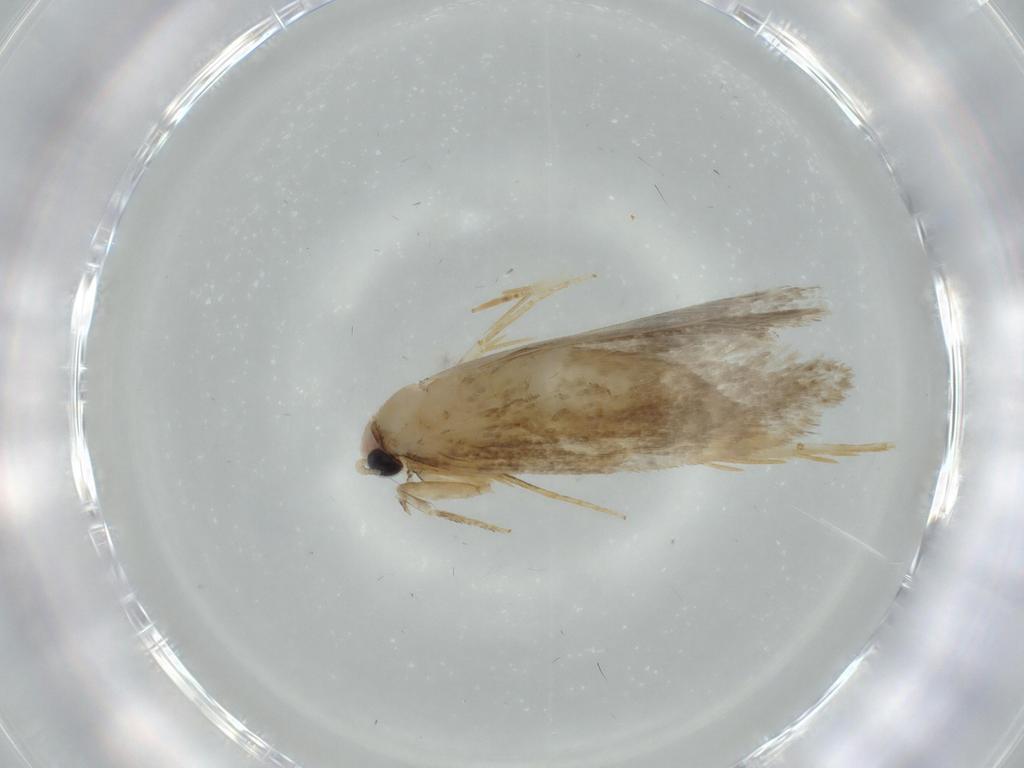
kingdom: Animalia
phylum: Arthropoda
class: Insecta
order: Lepidoptera
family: Tineidae
